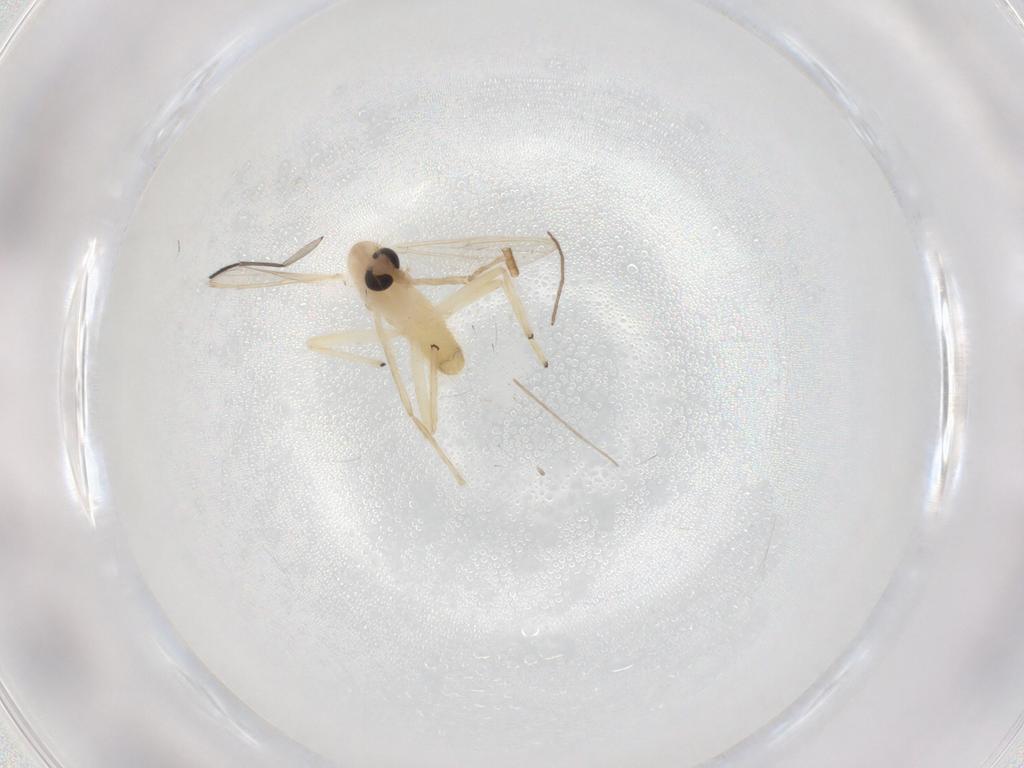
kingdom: Animalia
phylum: Arthropoda
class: Insecta
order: Diptera
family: Chironomidae
